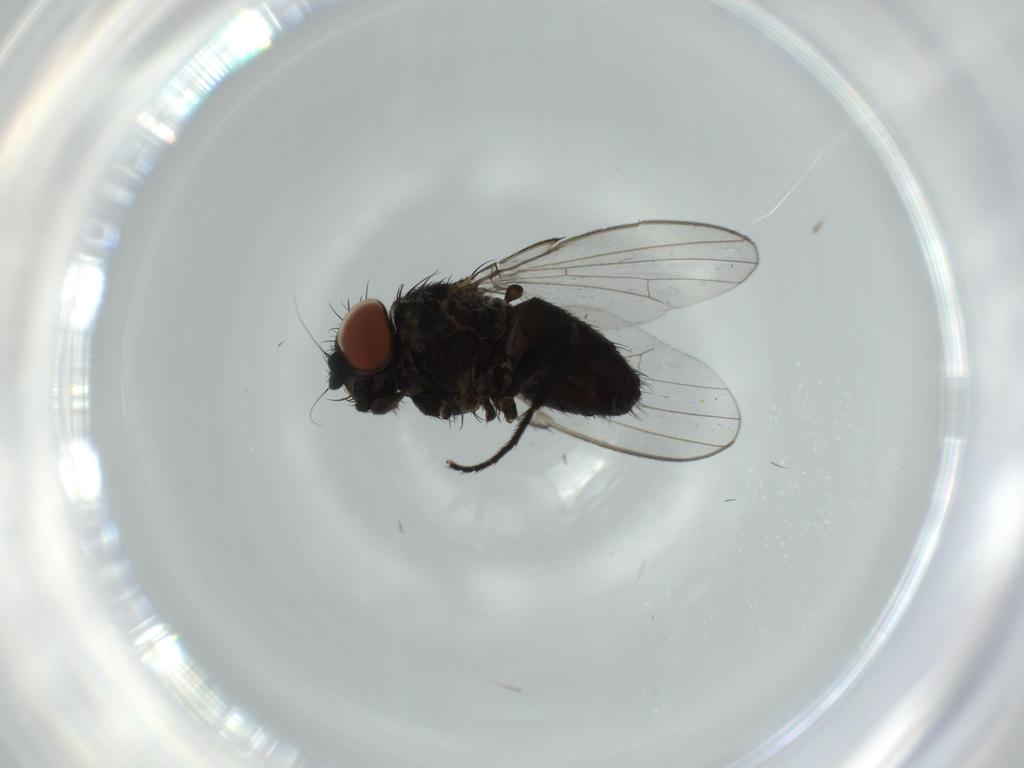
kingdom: Animalia
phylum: Arthropoda
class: Insecta
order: Diptera
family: Milichiidae
